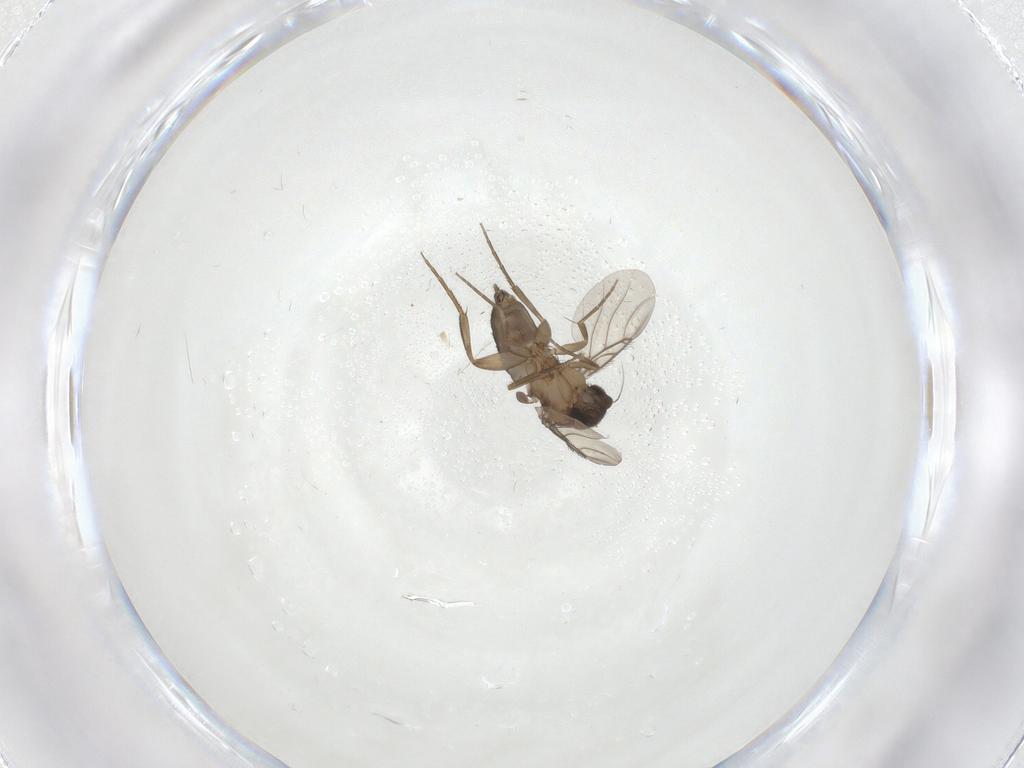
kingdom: Animalia
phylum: Arthropoda
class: Insecta
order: Diptera
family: Phoridae
